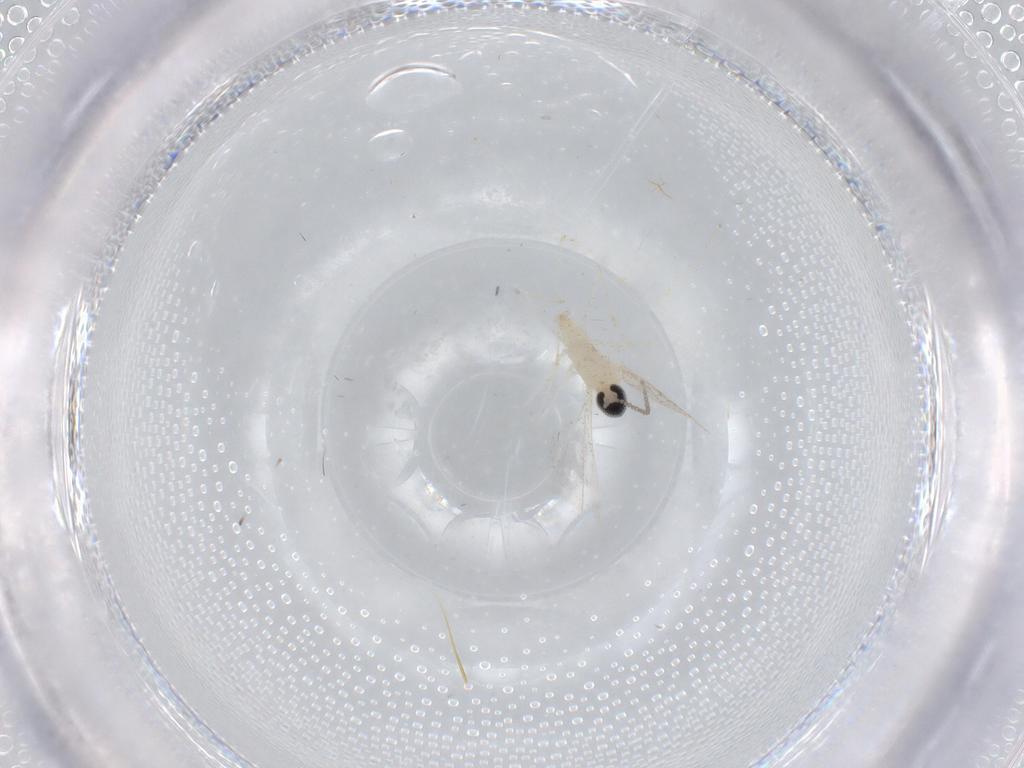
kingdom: Animalia
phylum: Arthropoda
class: Insecta
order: Diptera
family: Cecidomyiidae
